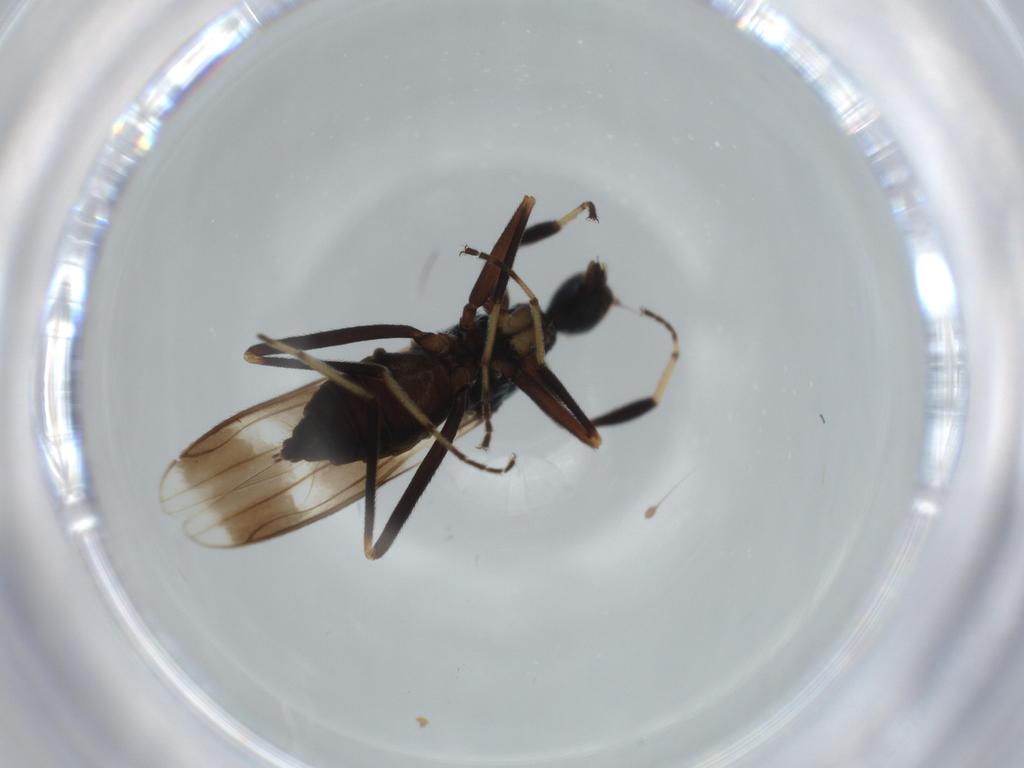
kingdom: Animalia
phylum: Arthropoda
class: Insecta
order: Diptera
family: Hybotidae
